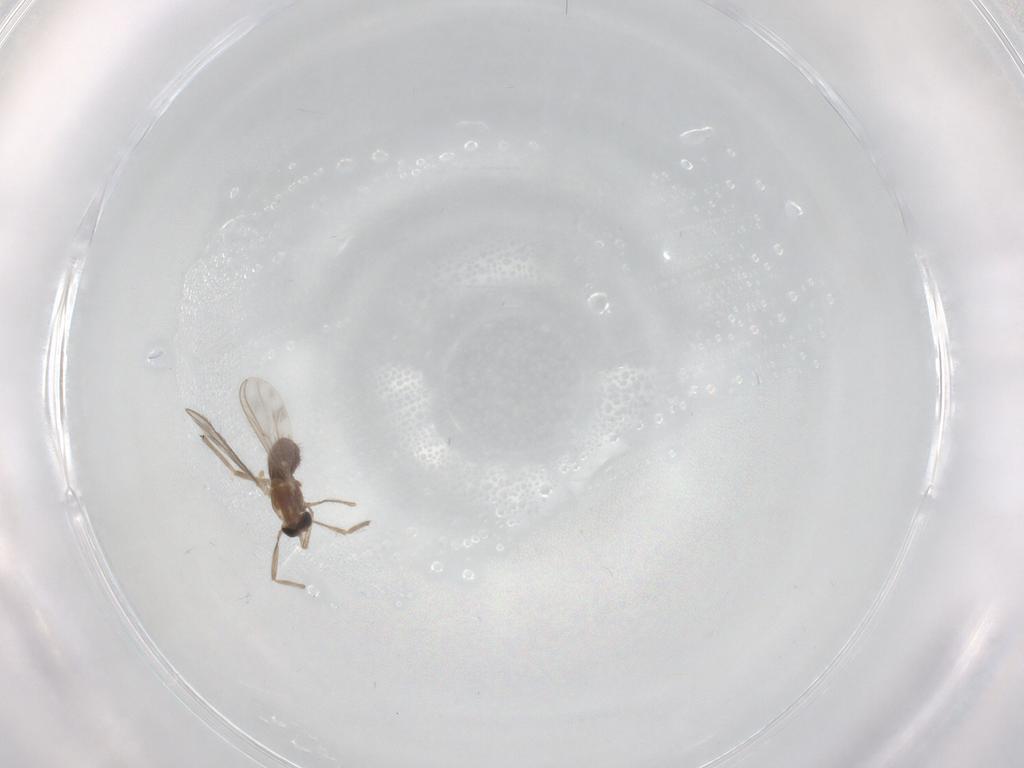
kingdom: Animalia
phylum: Arthropoda
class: Insecta
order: Diptera
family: Chironomidae
